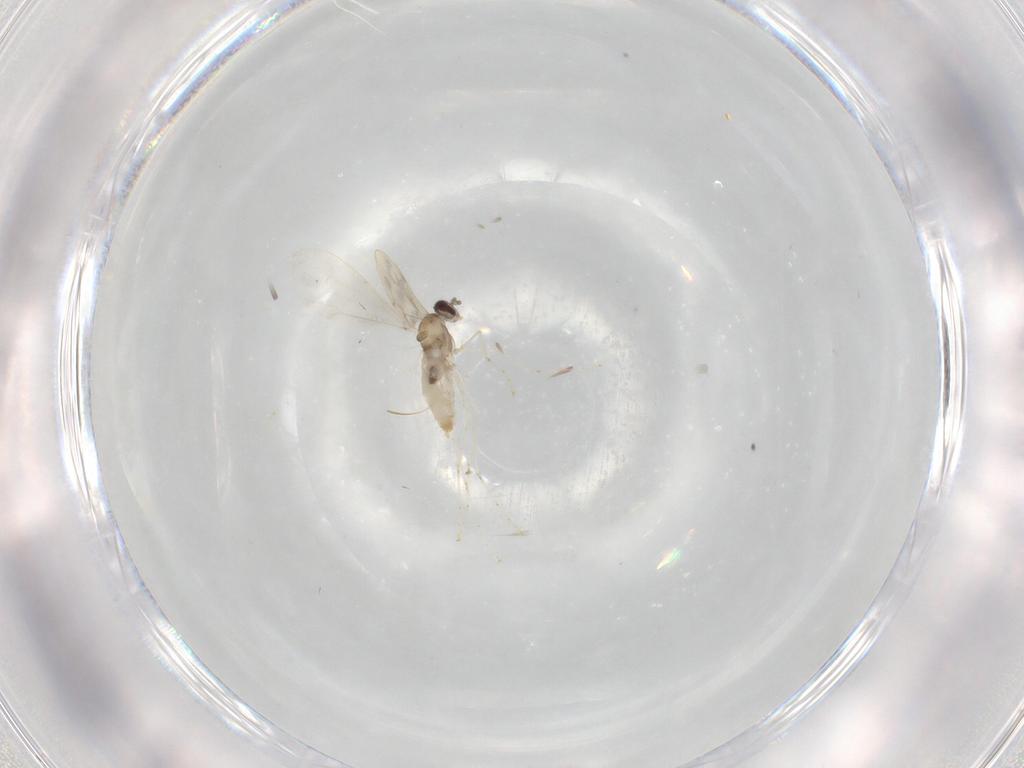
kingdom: Animalia
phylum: Arthropoda
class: Insecta
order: Diptera
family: Cecidomyiidae
